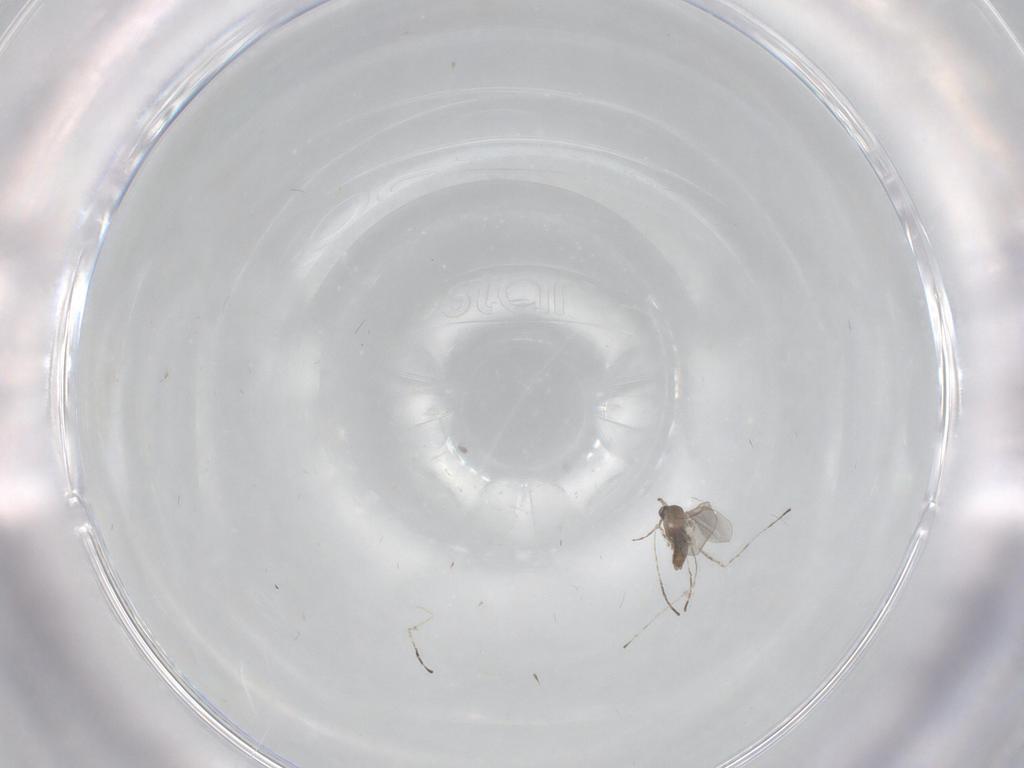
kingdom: Animalia
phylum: Arthropoda
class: Insecta
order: Diptera
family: Cecidomyiidae
